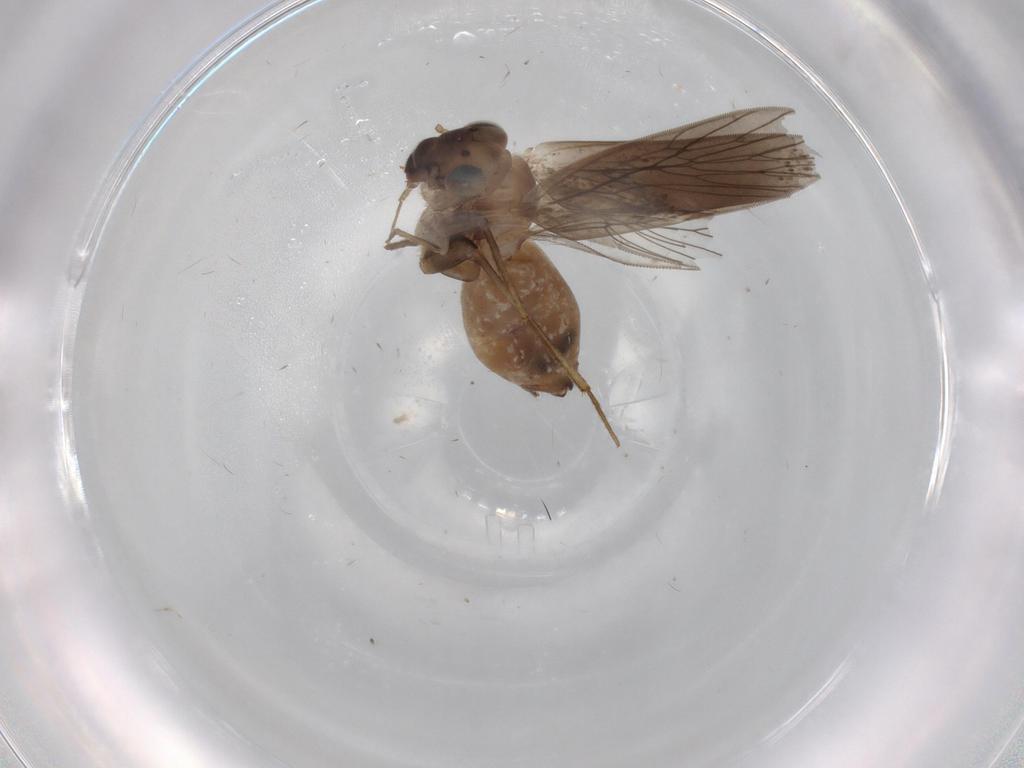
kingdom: Animalia
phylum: Arthropoda
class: Insecta
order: Psocodea
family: Lepidopsocidae
